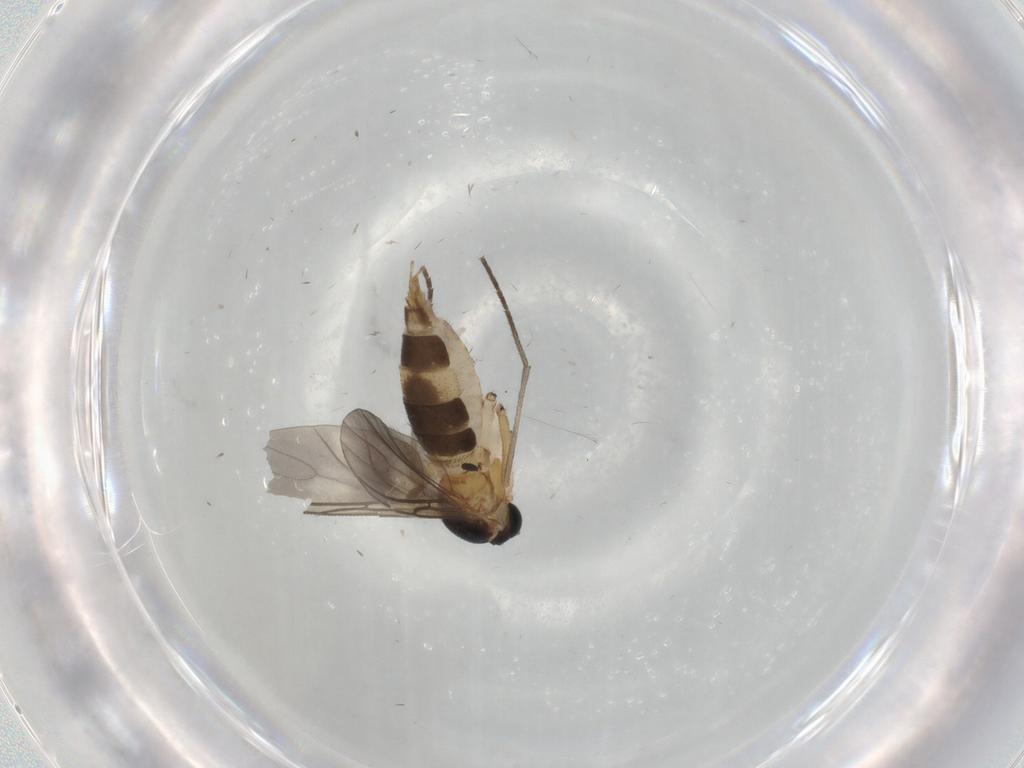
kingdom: Animalia
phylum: Arthropoda
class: Insecta
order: Diptera
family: Sciaridae
